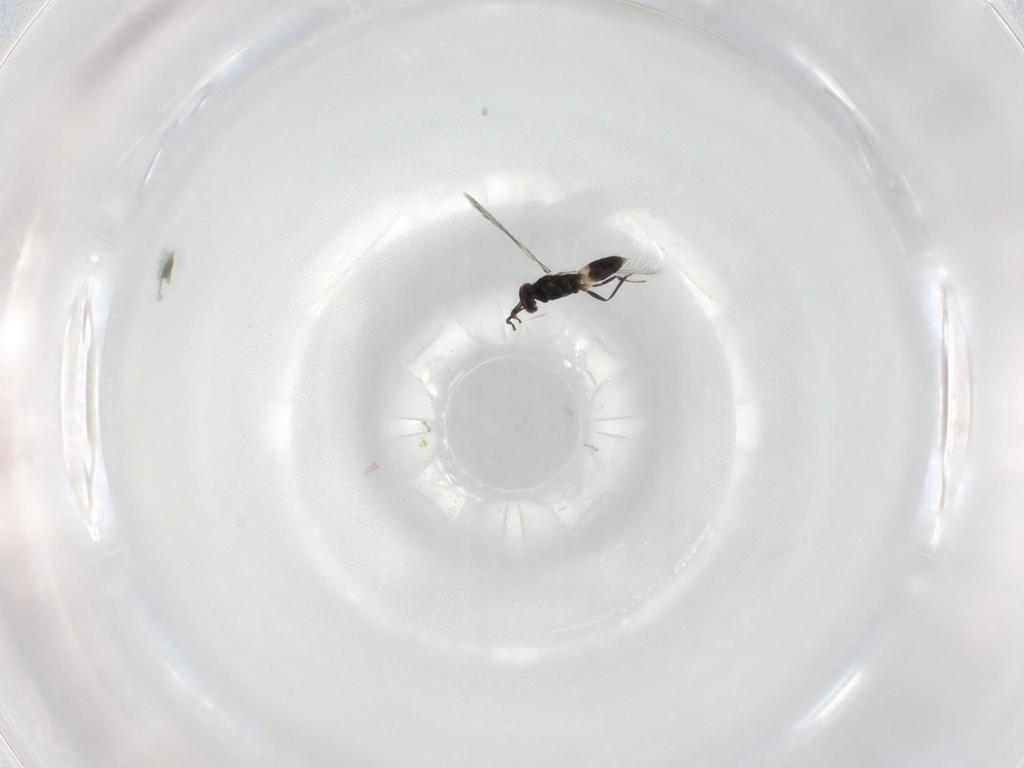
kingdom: Animalia
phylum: Arthropoda
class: Insecta
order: Hymenoptera
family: Mymaridae
